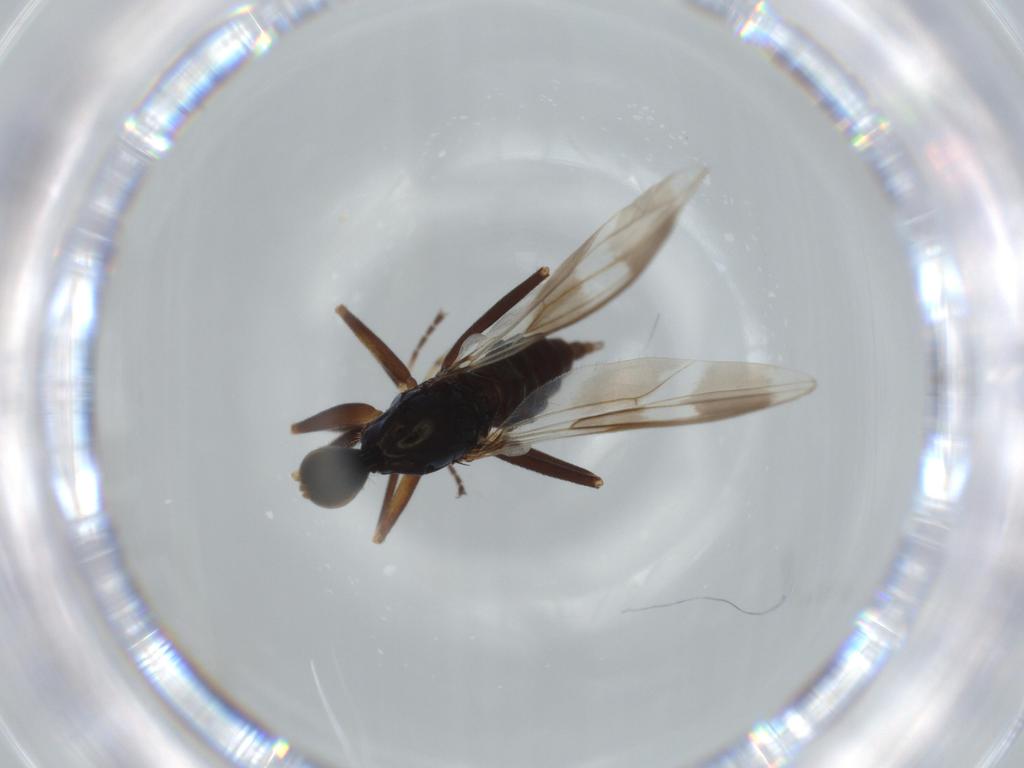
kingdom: Animalia
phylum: Arthropoda
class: Insecta
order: Diptera
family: Hybotidae
